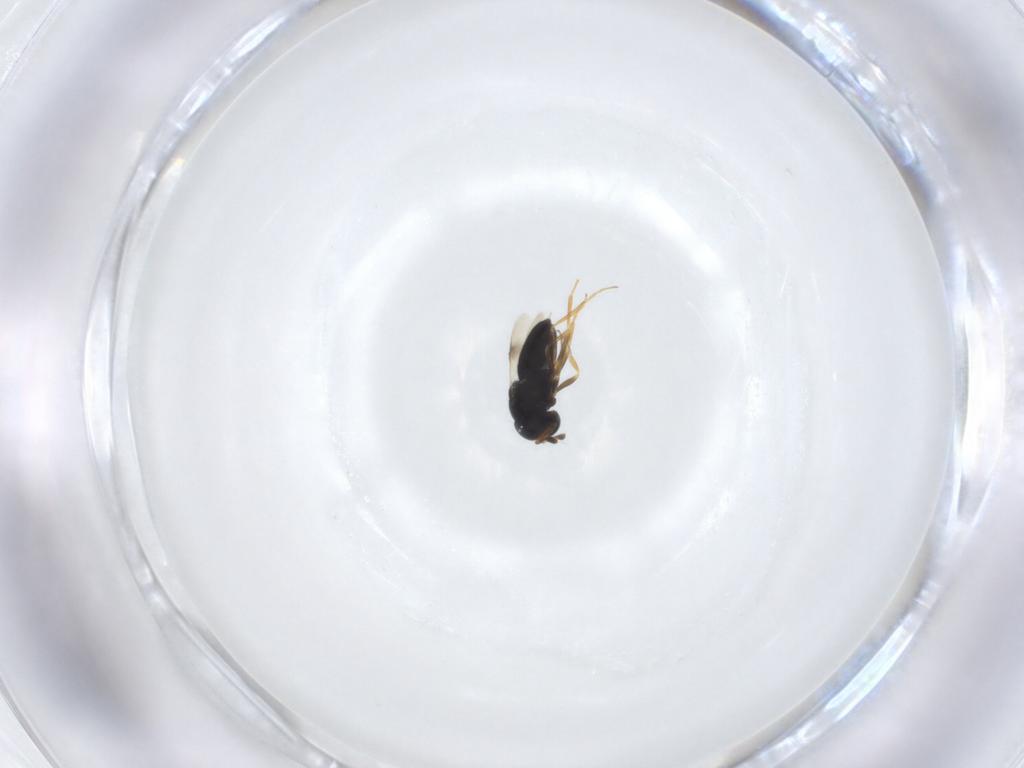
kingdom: Animalia
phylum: Arthropoda
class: Insecta
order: Hymenoptera
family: Scelionidae
